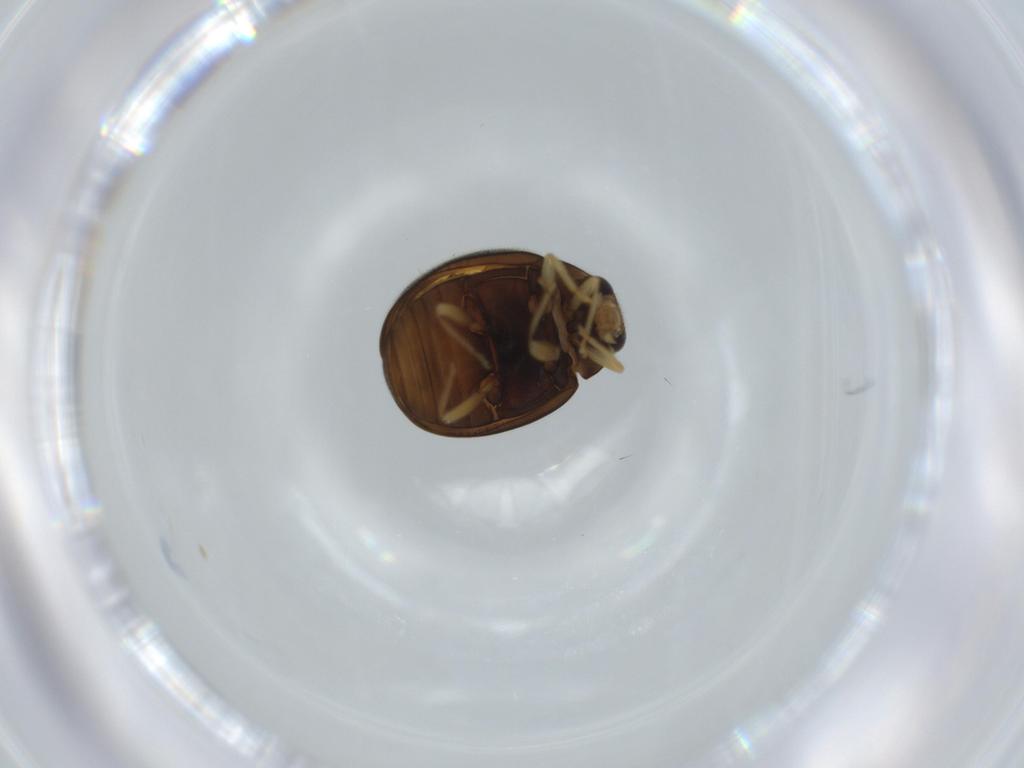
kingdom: Animalia
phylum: Arthropoda
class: Insecta
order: Coleoptera
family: Coccinellidae
